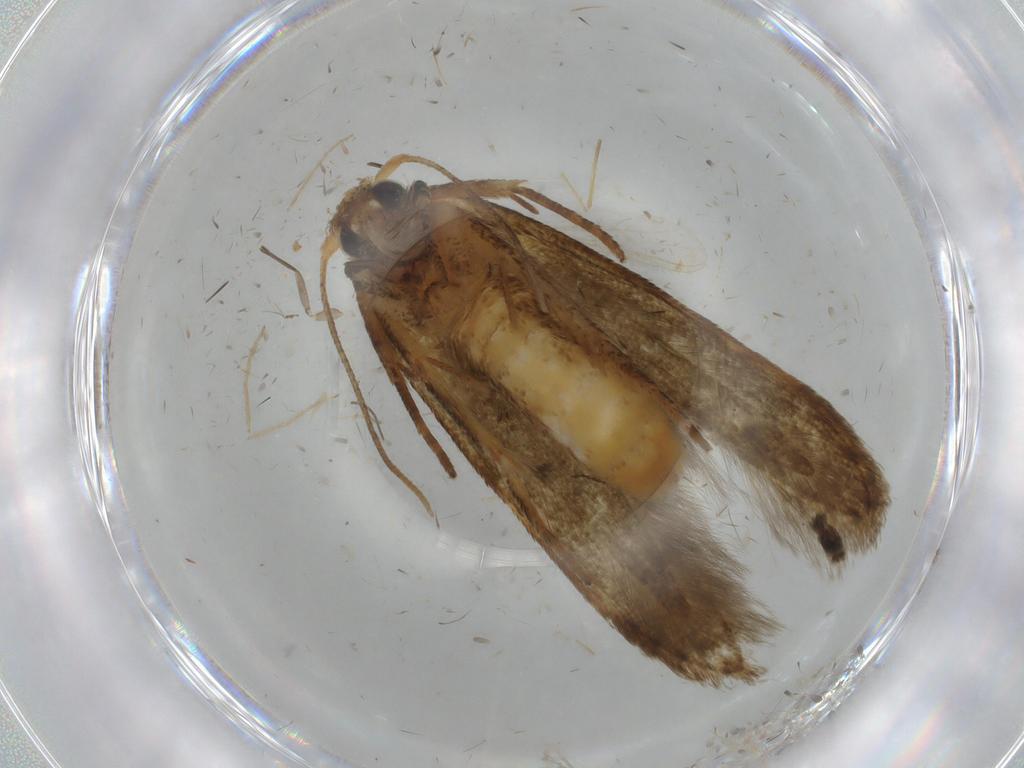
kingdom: Animalia
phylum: Arthropoda
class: Insecta
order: Lepidoptera
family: Blastobasidae
